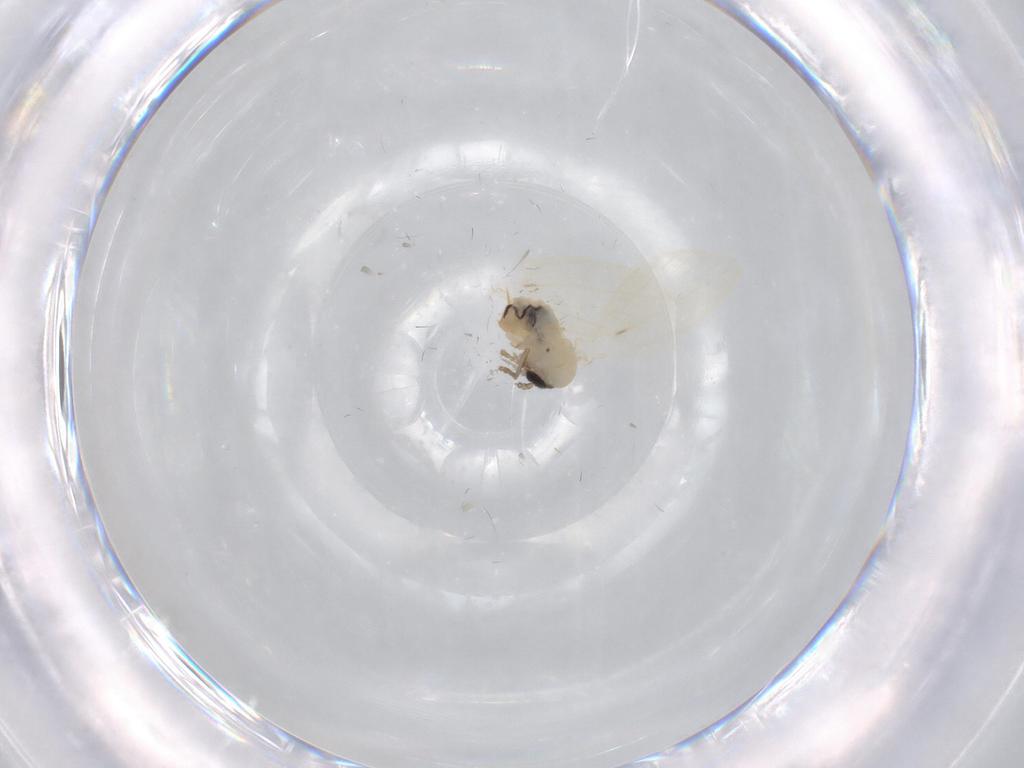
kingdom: Animalia
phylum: Arthropoda
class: Insecta
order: Diptera
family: Psychodidae
